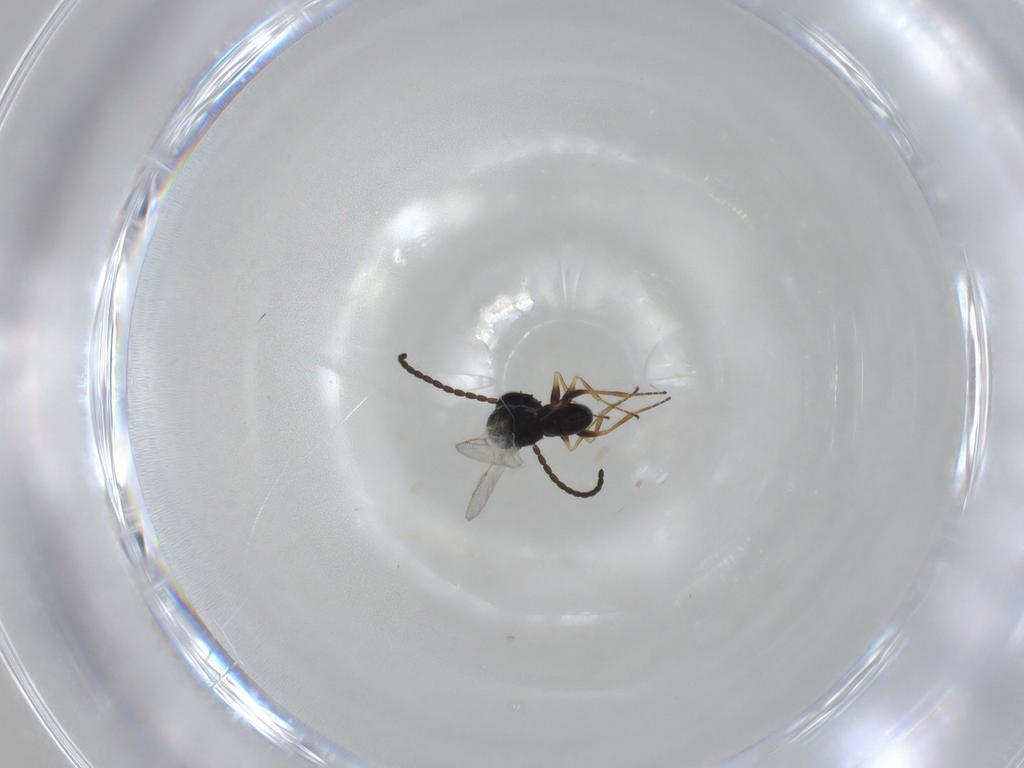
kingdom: Animalia
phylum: Arthropoda
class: Insecta
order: Hymenoptera
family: Figitidae
